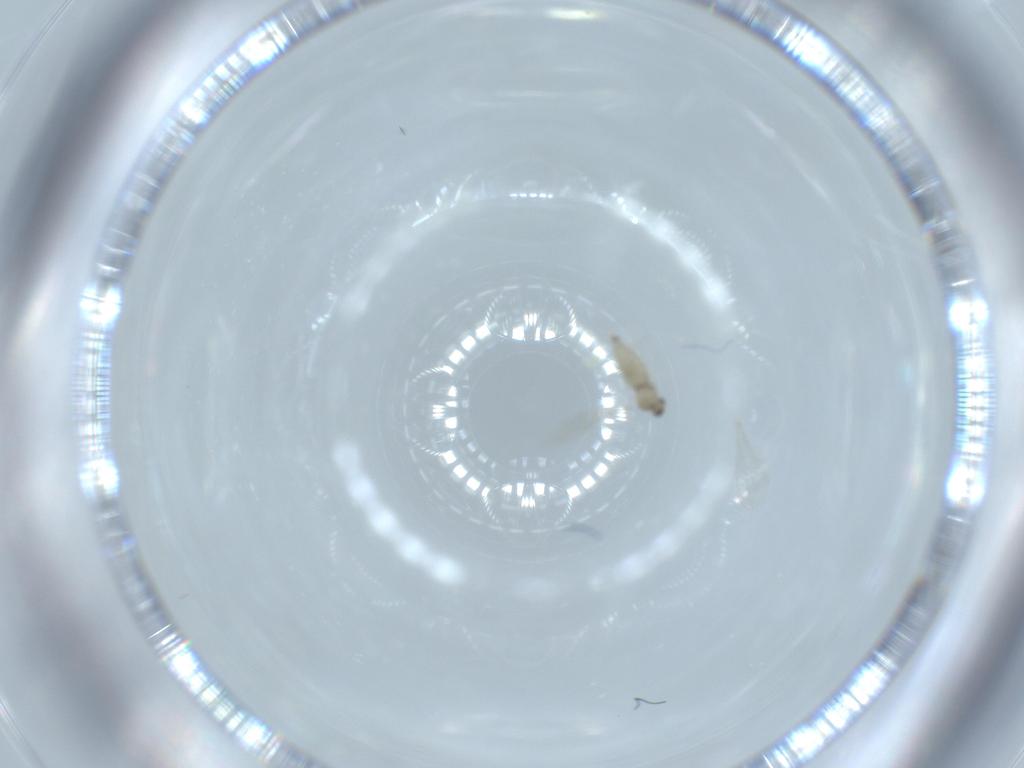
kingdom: Animalia
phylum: Arthropoda
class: Insecta
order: Diptera
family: Cecidomyiidae
